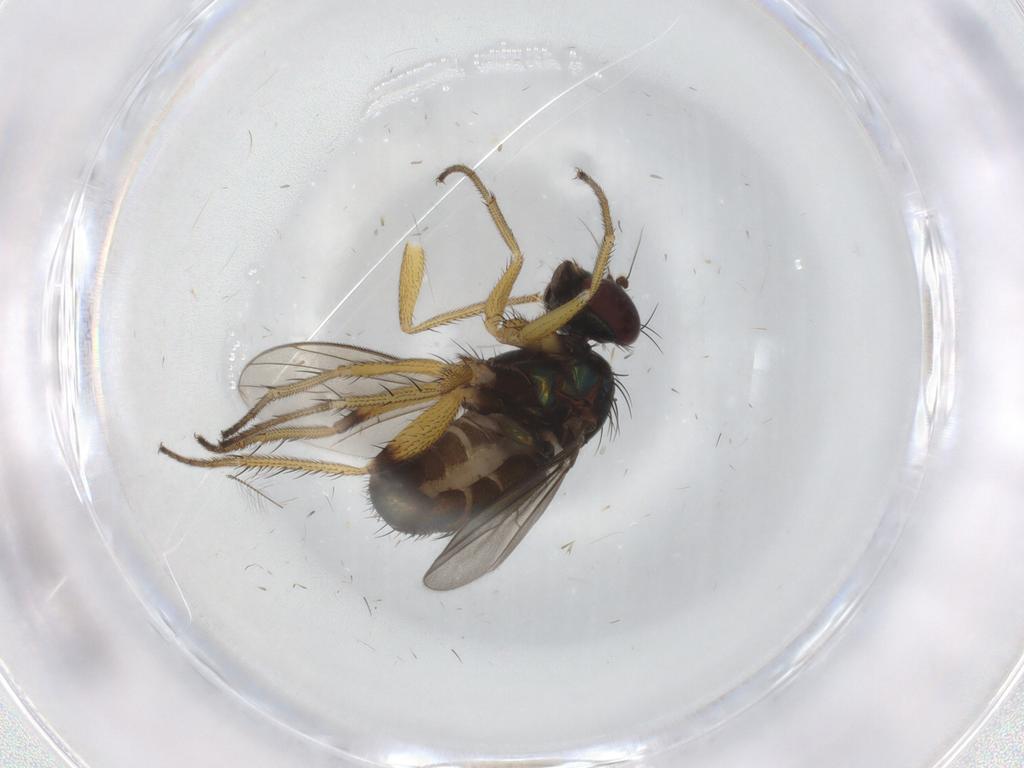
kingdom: Animalia
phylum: Arthropoda
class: Insecta
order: Diptera
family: Dolichopodidae
